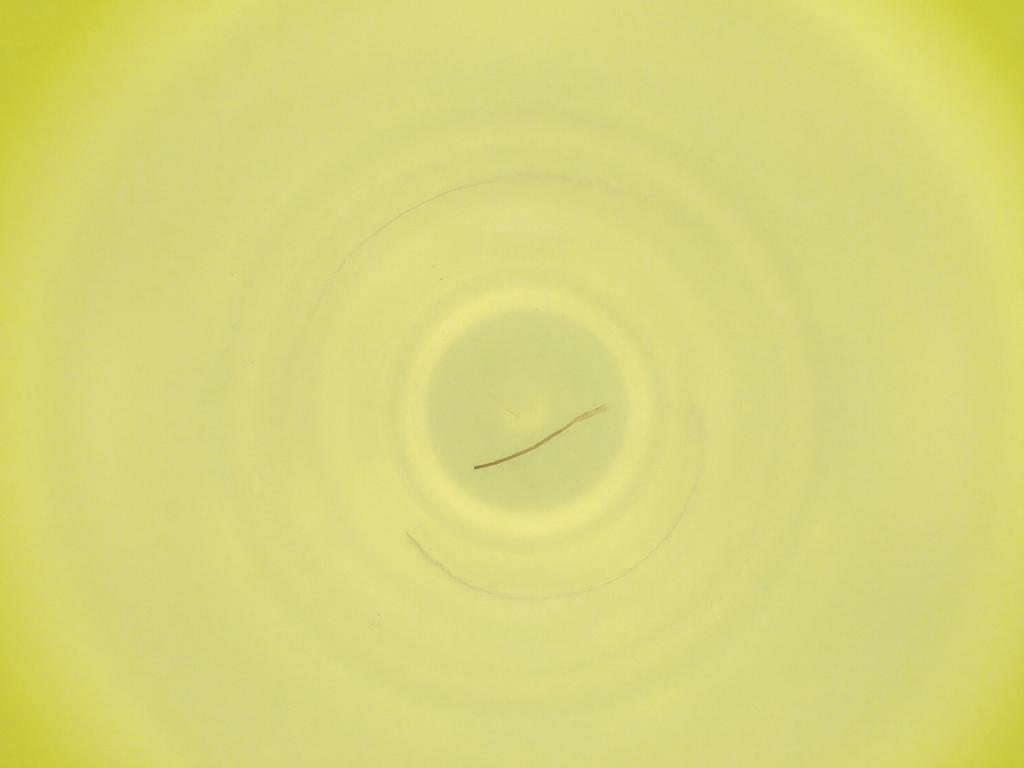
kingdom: Animalia
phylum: Arthropoda
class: Insecta
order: Diptera
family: Cecidomyiidae
